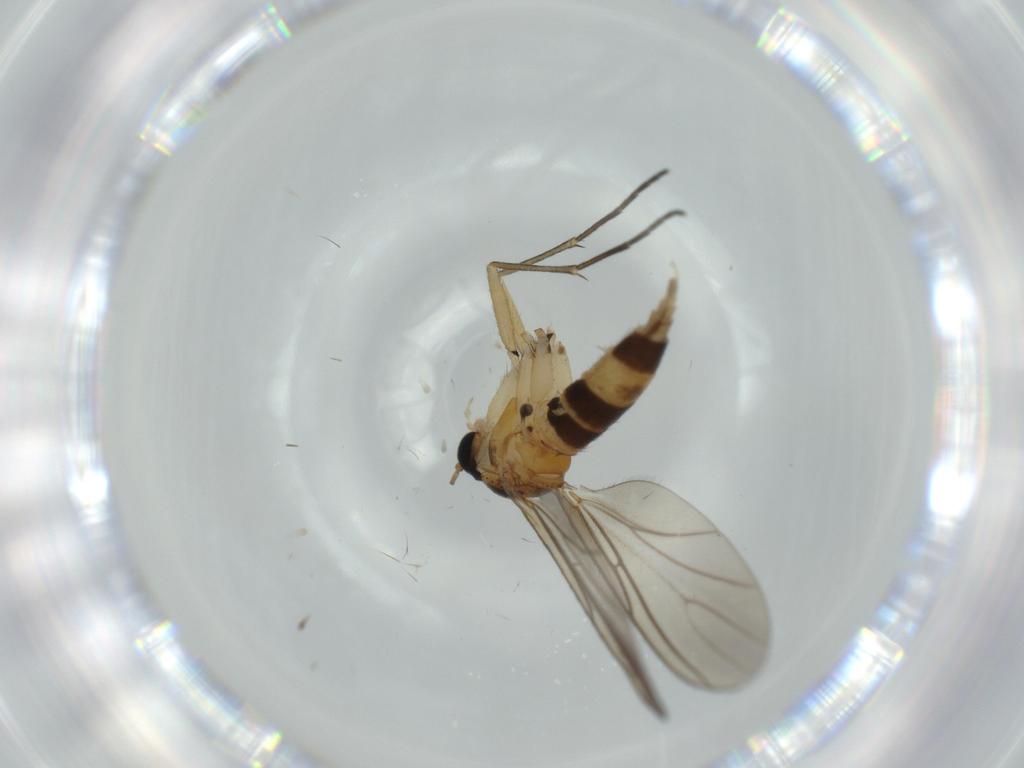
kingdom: Animalia
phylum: Arthropoda
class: Insecta
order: Diptera
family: Sciaridae
